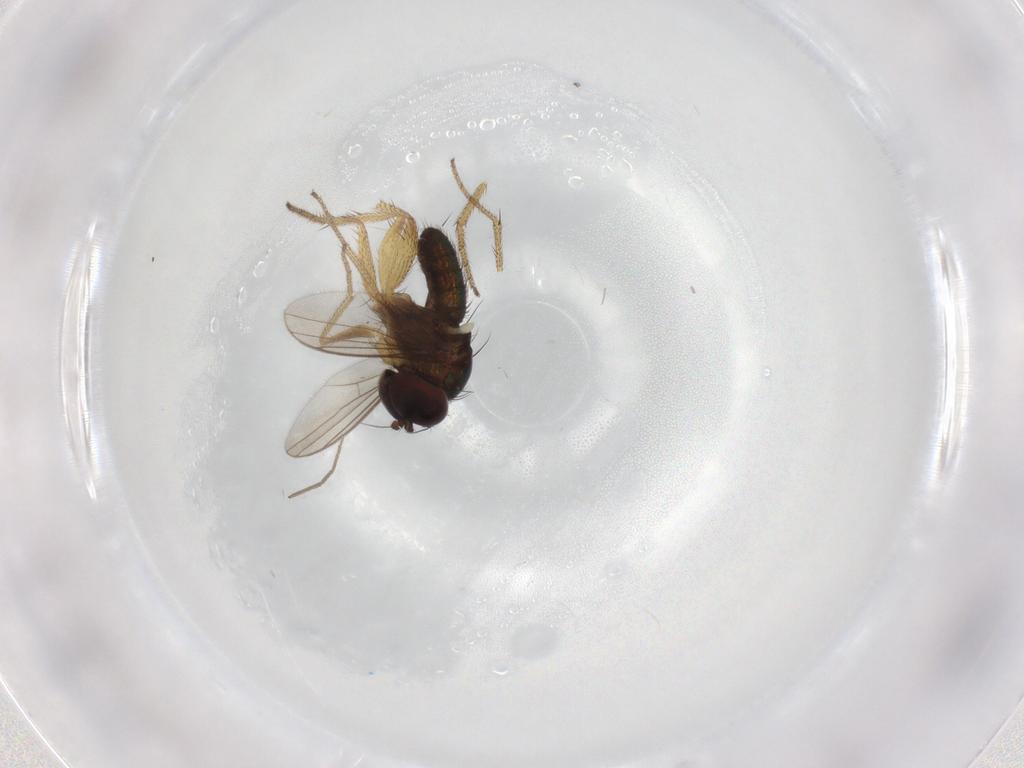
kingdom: Animalia
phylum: Arthropoda
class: Insecta
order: Diptera
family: Dolichopodidae
